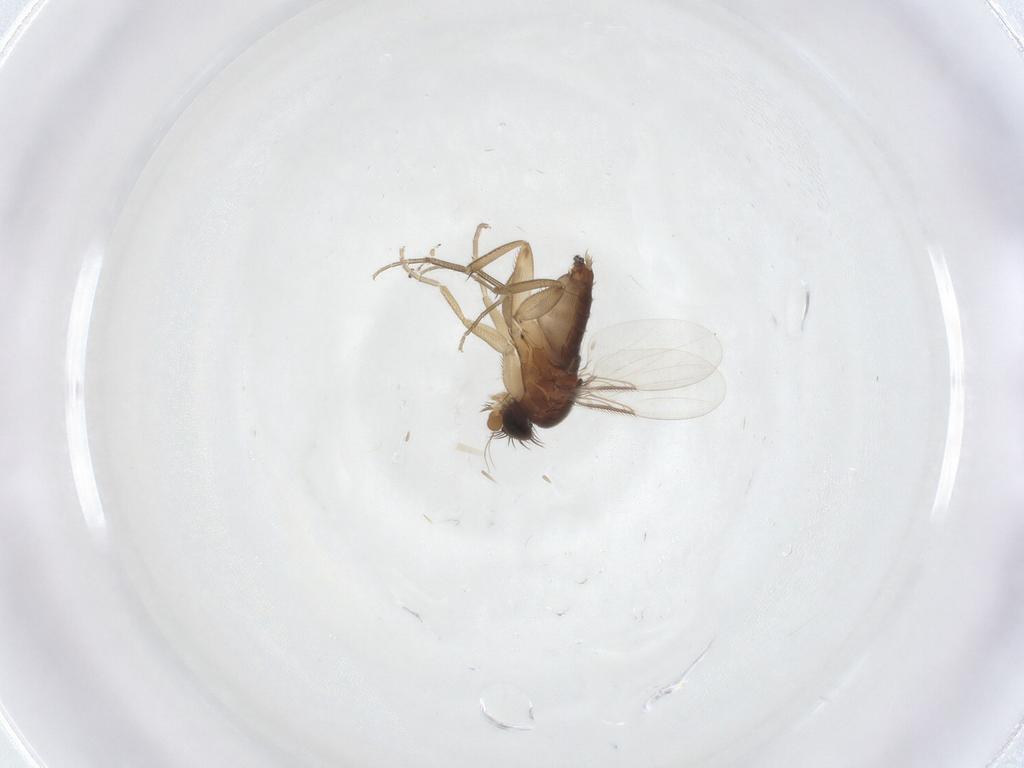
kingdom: Animalia
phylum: Arthropoda
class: Insecta
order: Diptera
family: Phoridae
